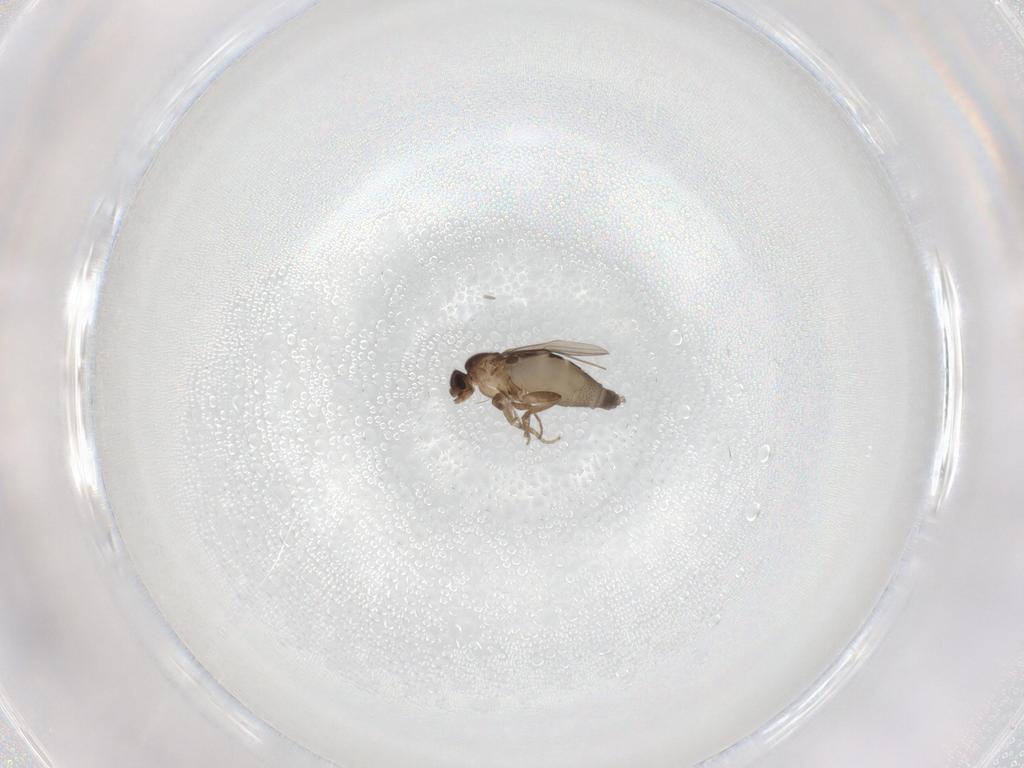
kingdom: Animalia
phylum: Arthropoda
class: Insecta
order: Diptera
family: Psychodidae
